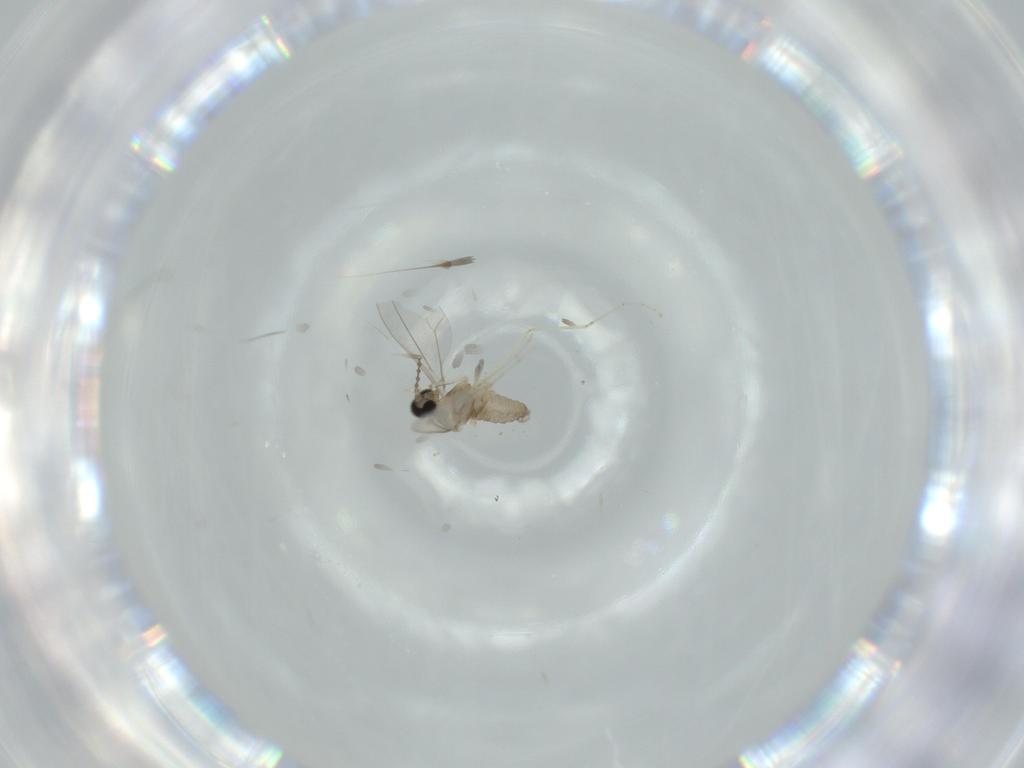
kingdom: Animalia
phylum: Arthropoda
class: Insecta
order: Diptera
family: Cecidomyiidae
